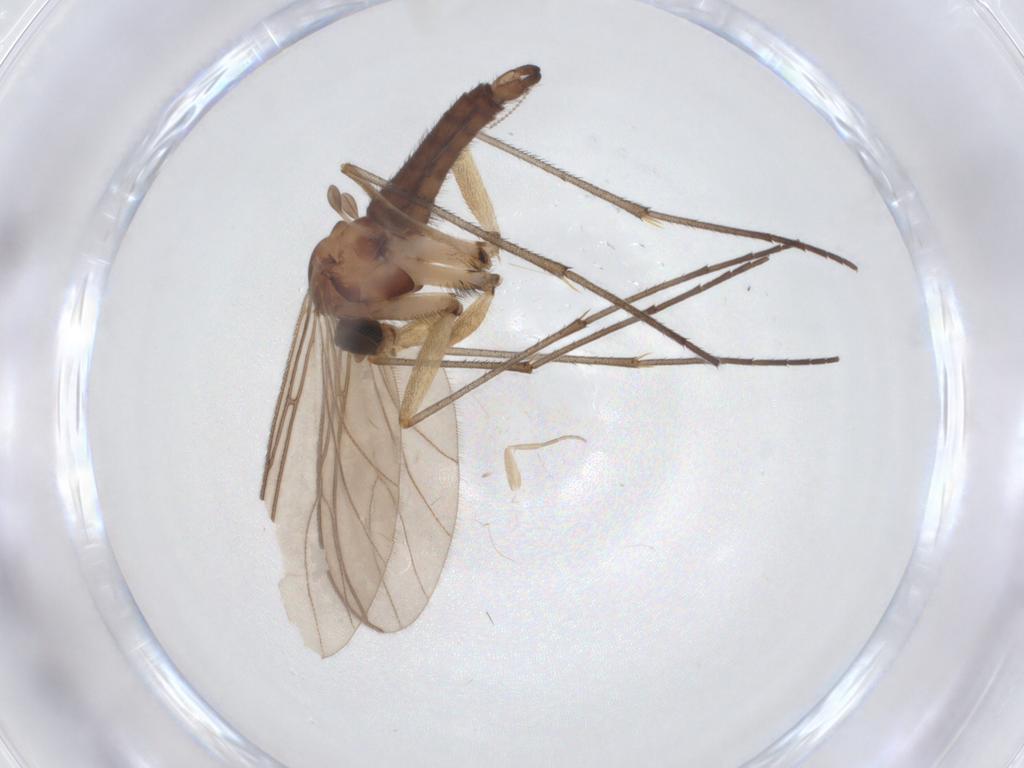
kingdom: Animalia
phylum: Arthropoda
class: Insecta
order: Diptera
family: Sciaridae
